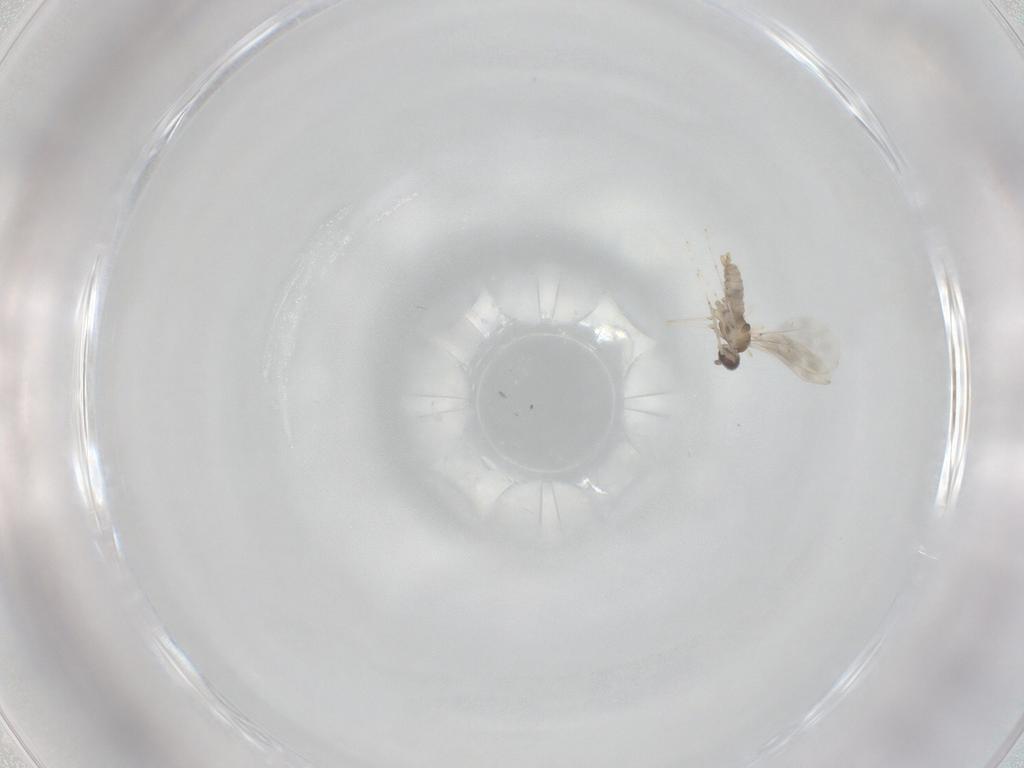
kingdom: Animalia
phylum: Arthropoda
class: Insecta
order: Diptera
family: Cecidomyiidae
